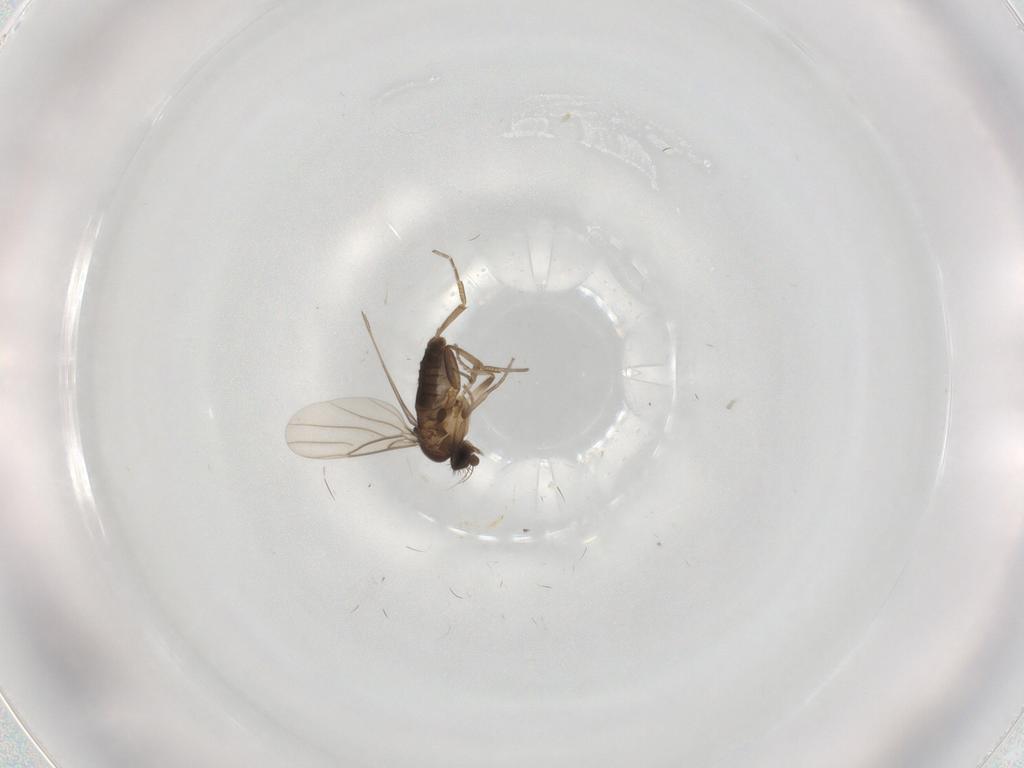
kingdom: Animalia
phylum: Arthropoda
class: Insecta
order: Diptera
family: Phoridae
